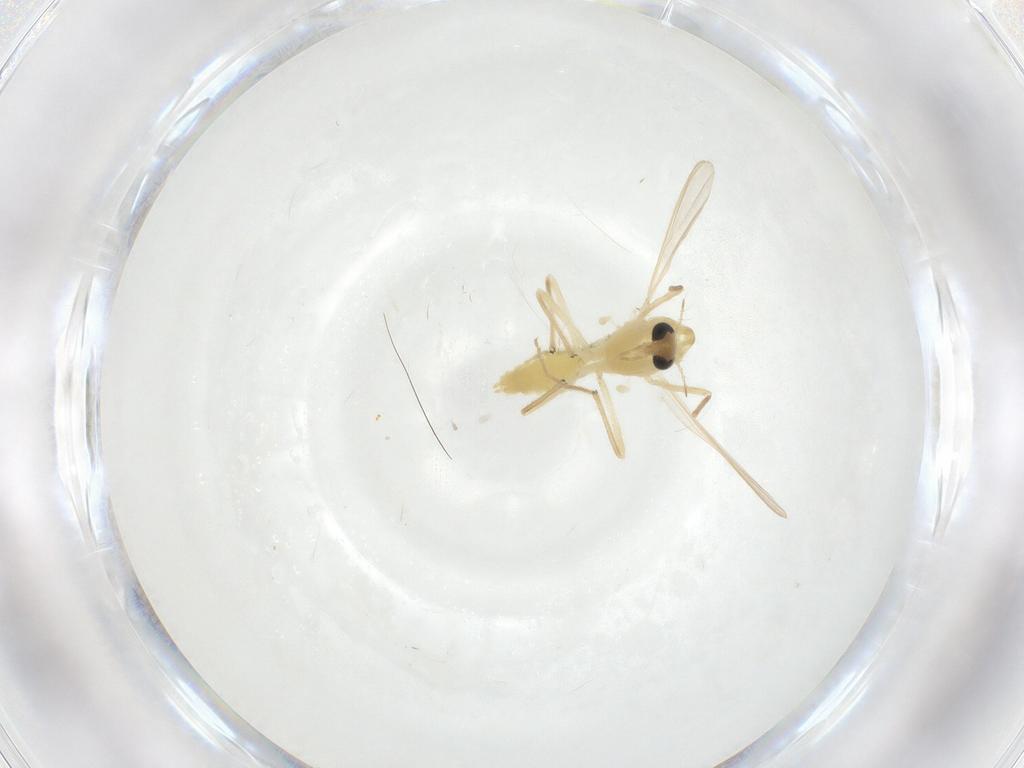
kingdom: Animalia
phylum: Arthropoda
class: Insecta
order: Diptera
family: Chironomidae
